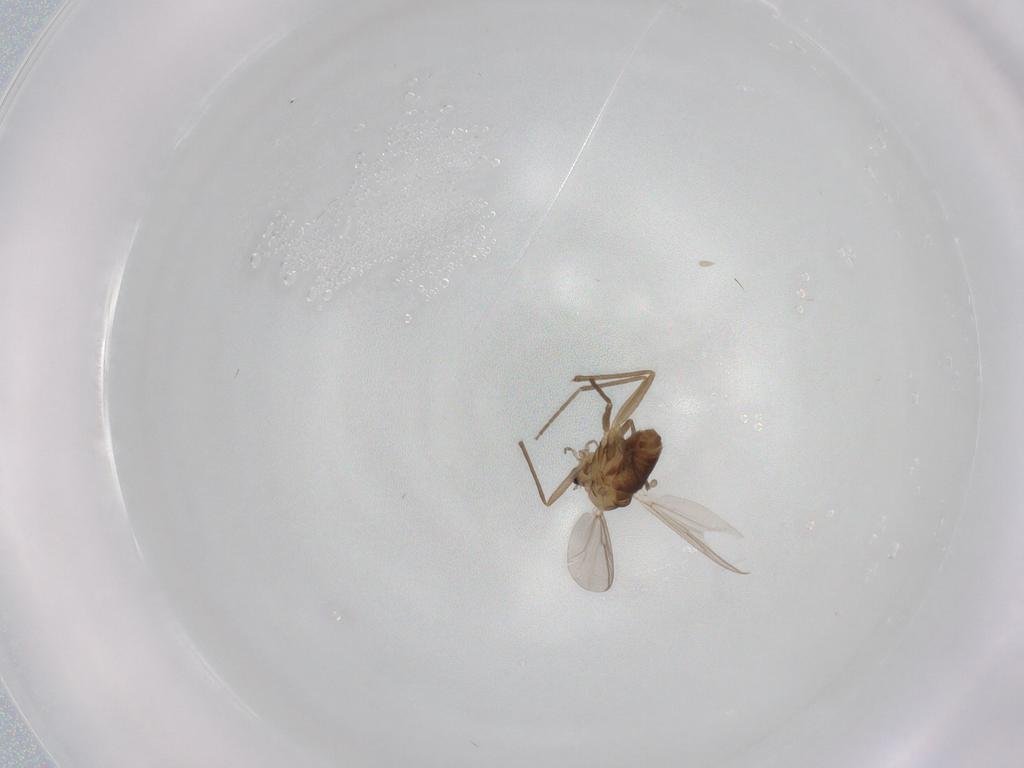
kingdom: Animalia
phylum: Arthropoda
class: Insecta
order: Diptera
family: Chironomidae
